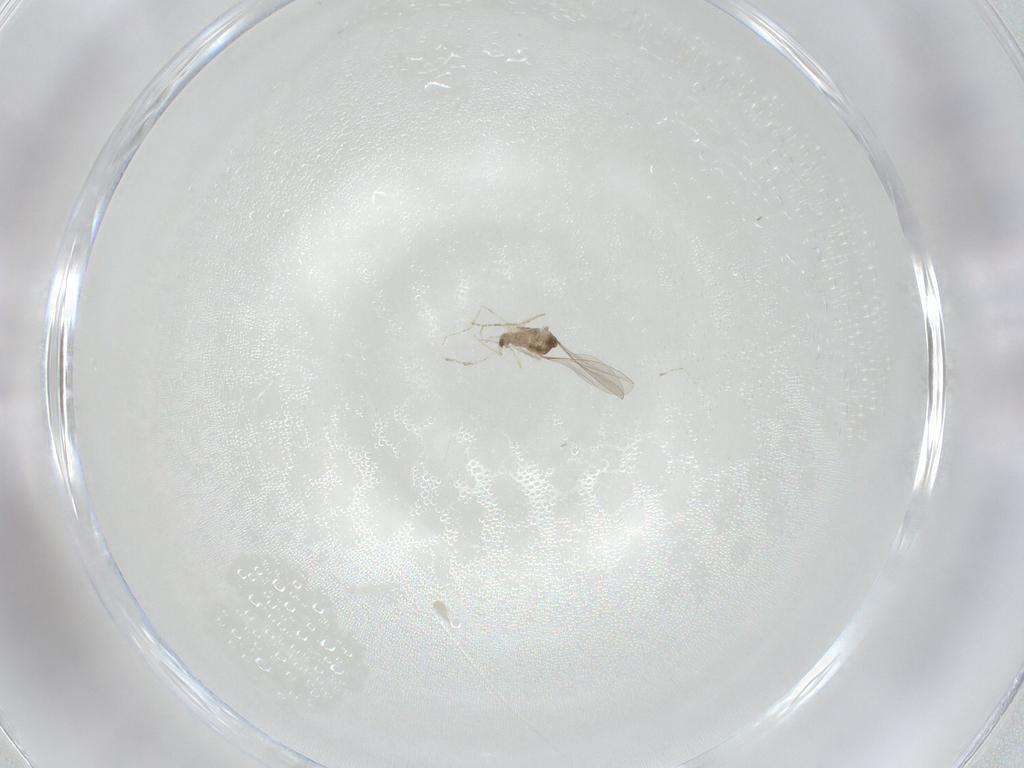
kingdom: Animalia
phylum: Arthropoda
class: Insecta
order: Diptera
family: Cecidomyiidae
